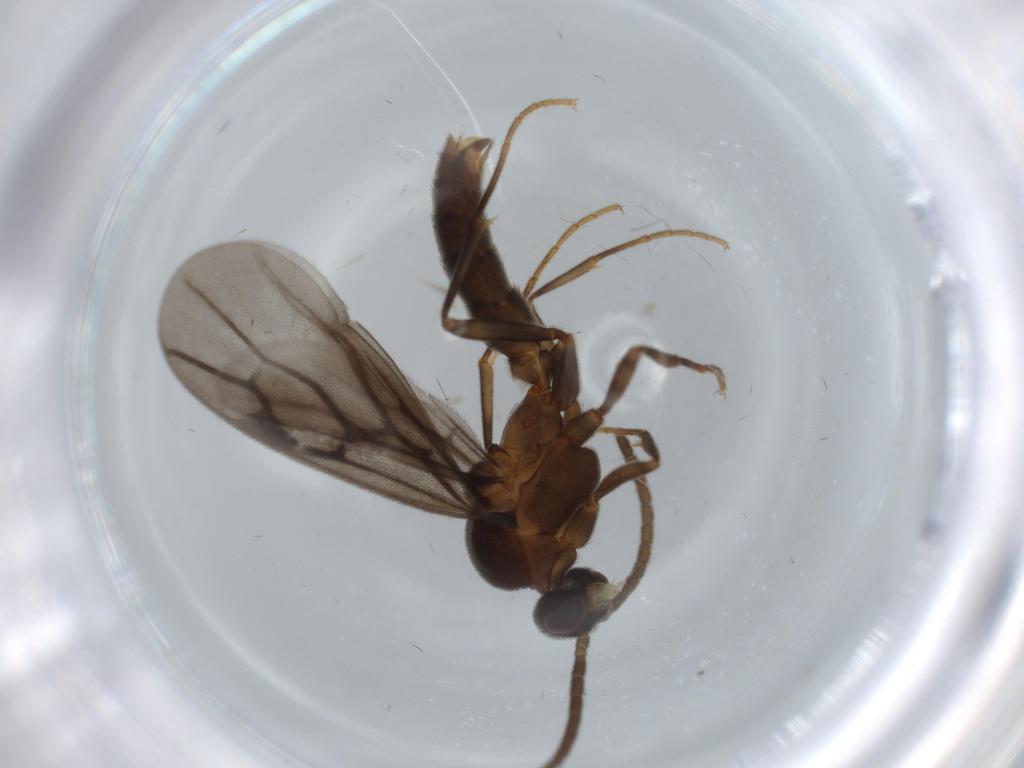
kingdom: Animalia
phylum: Arthropoda
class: Insecta
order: Hymenoptera
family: Formicidae
